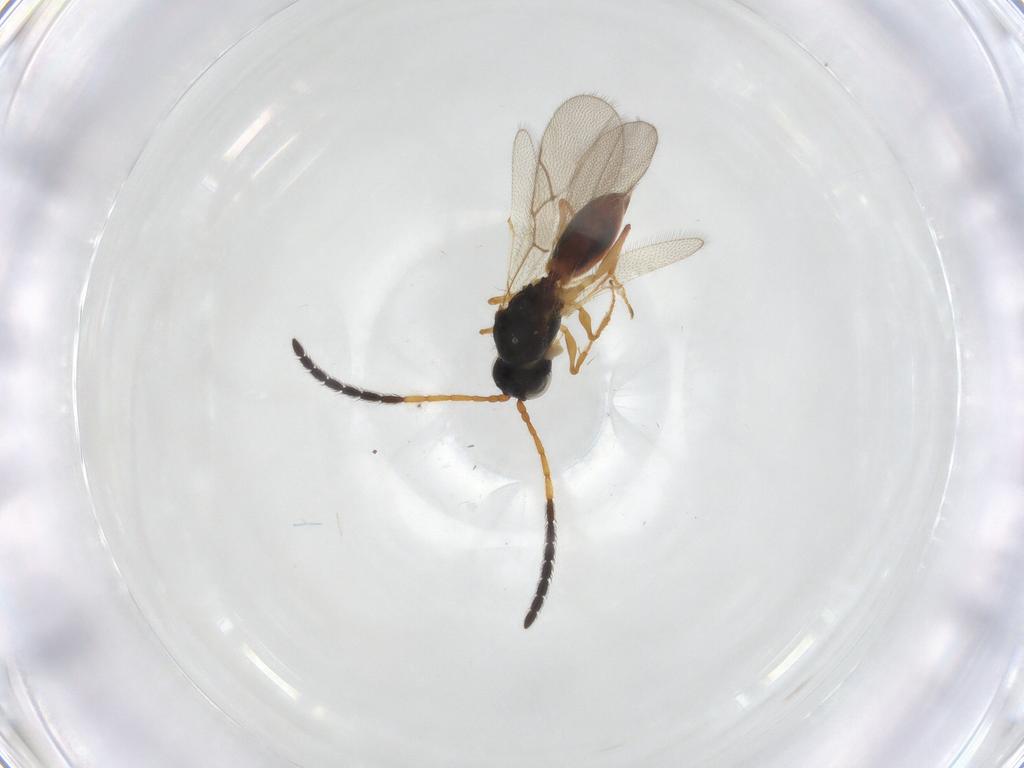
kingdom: Animalia
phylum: Arthropoda
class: Insecta
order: Hymenoptera
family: Scelionidae
